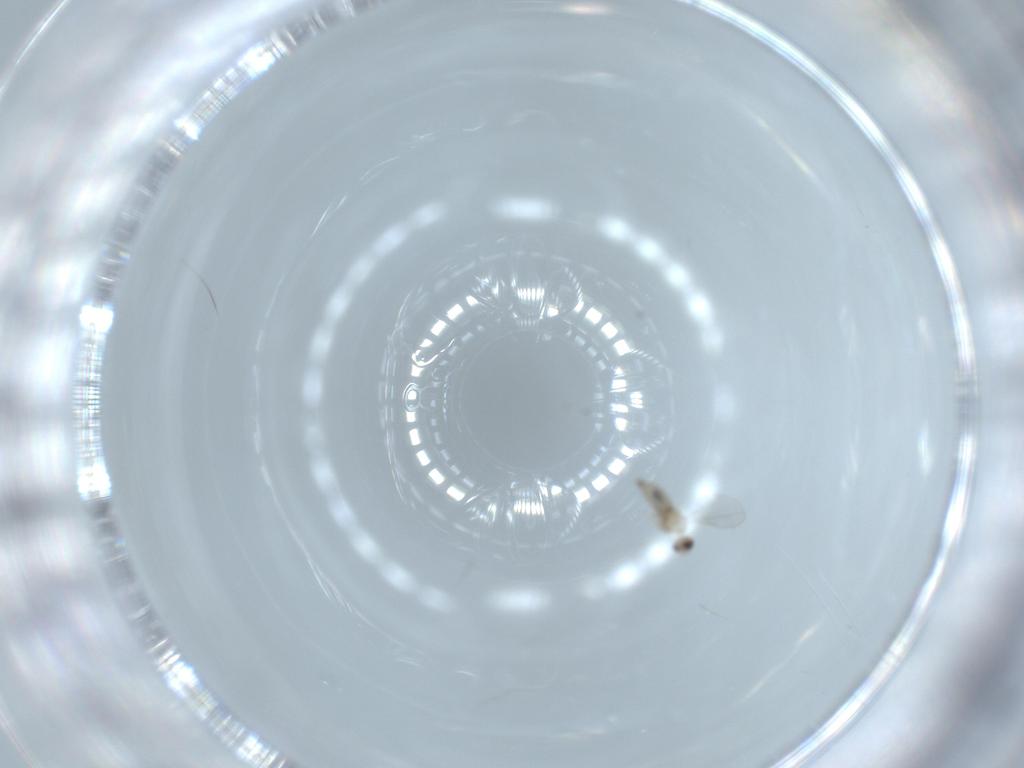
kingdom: Animalia
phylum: Arthropoda
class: Insecta
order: Diptera
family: Cecidomyiidae
